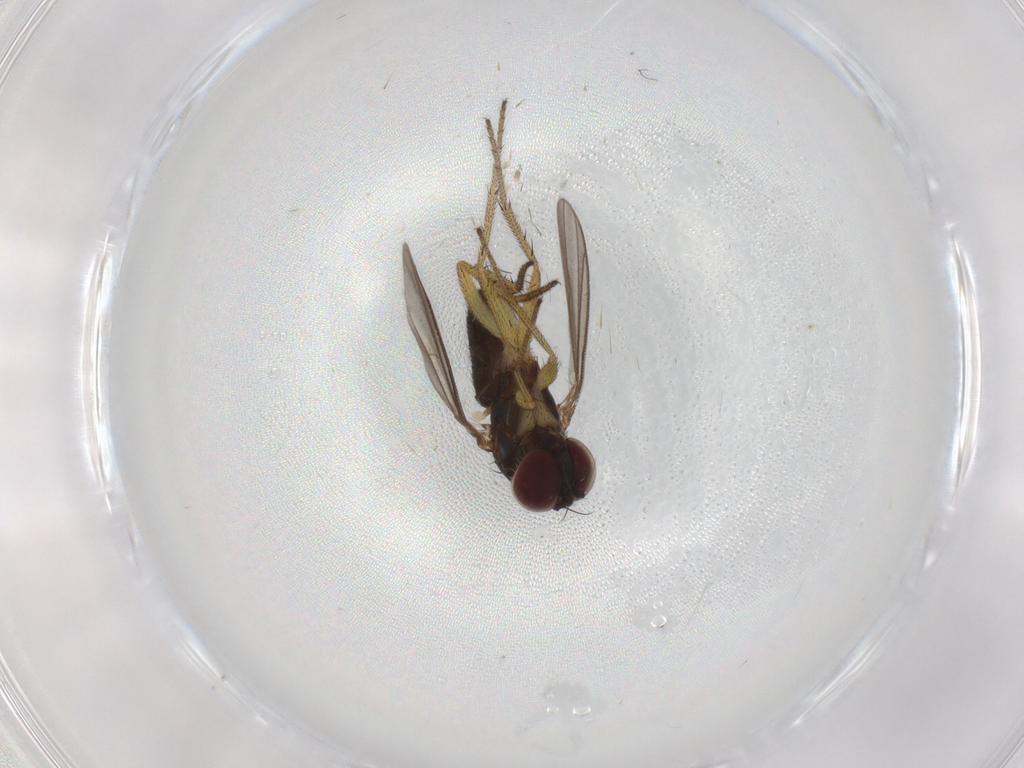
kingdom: Animalia
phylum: Arthropoda
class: Insecta
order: Diptera
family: Dolichopodidae
